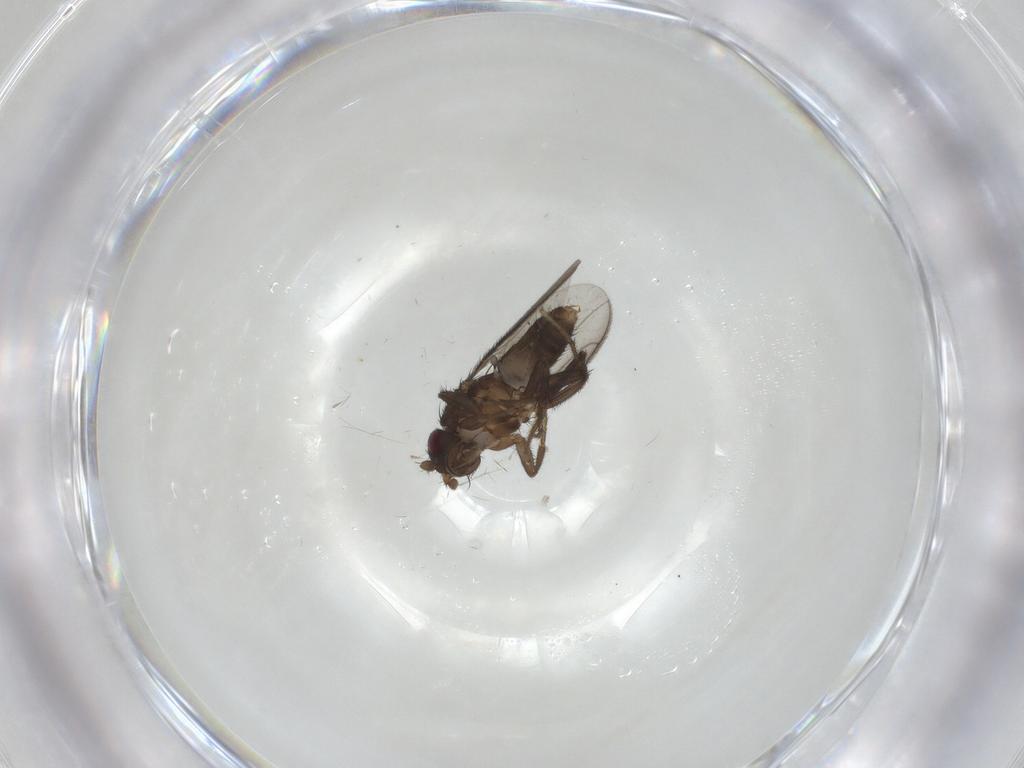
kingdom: Animalia
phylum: Arthropoda
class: Insecta
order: Diptera
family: Sphaeroceridae
